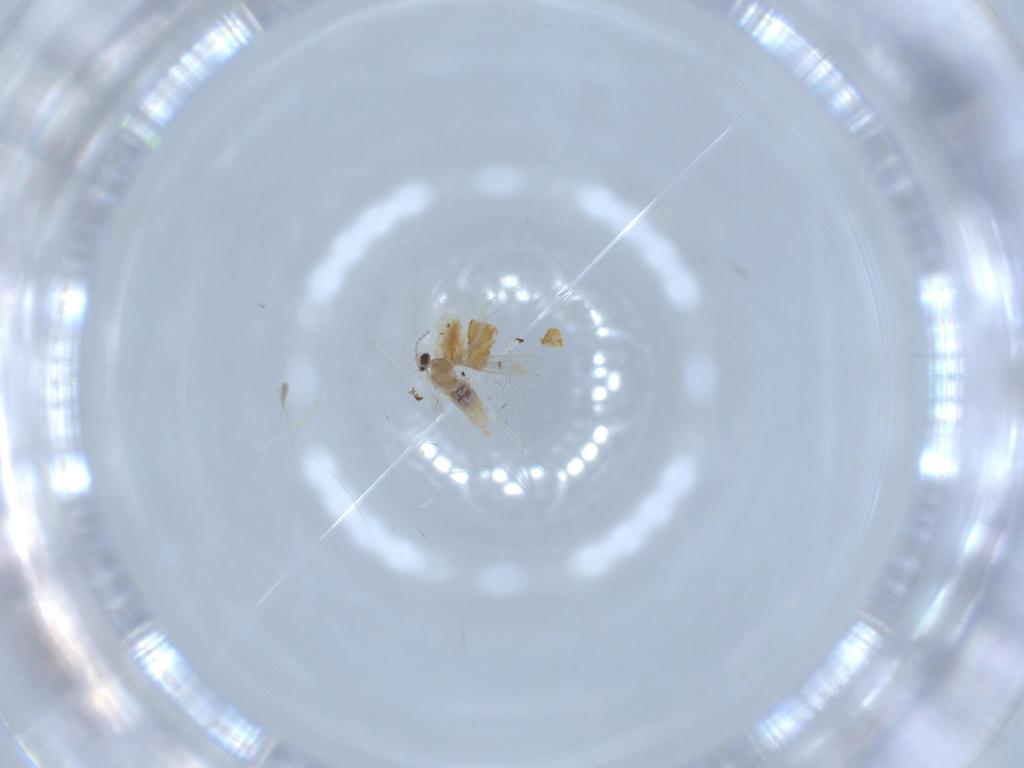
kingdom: Animalia
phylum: Arthropoda
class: Insecta
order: Diptera
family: Cecidomyiidae
